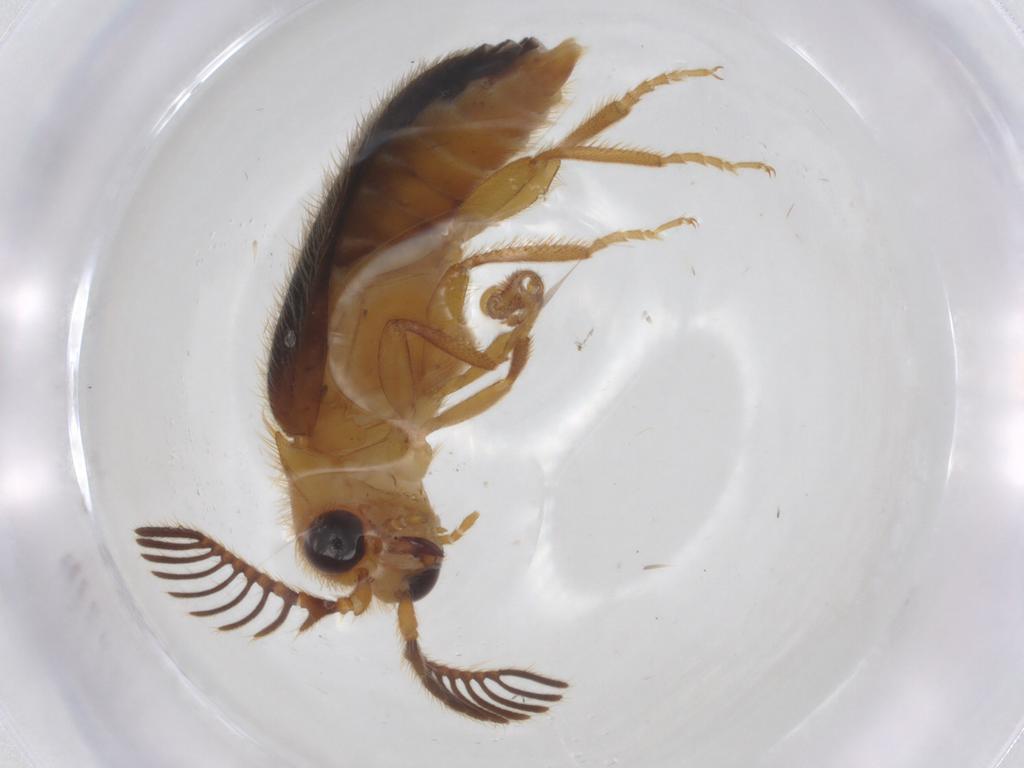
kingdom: Animalia
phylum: Arthropoda
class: Insecta
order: Coleoptera
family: Elateridae
